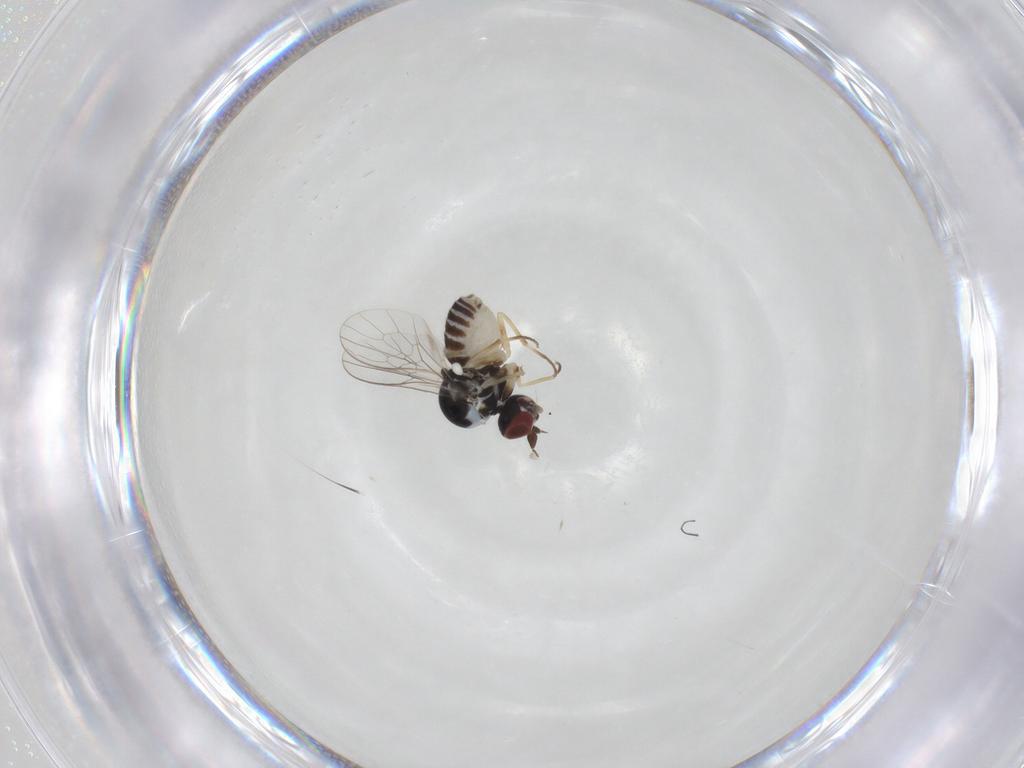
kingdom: Animalia
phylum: Arthropoda
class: Insecta
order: Diptera
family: Bombyliidae
